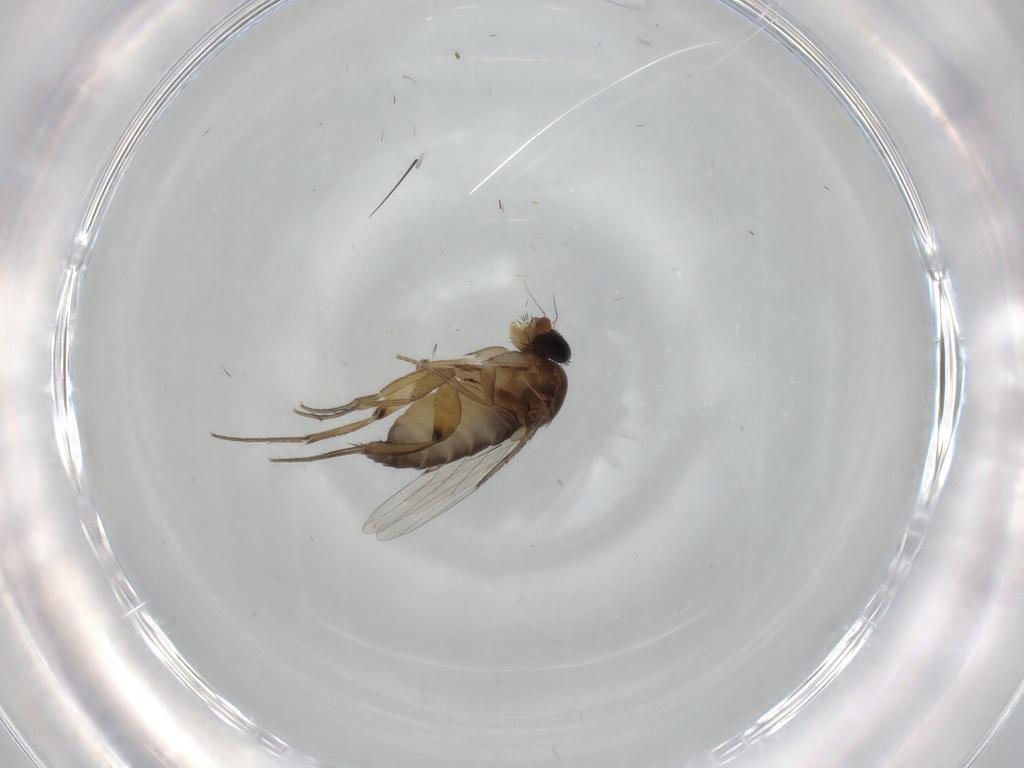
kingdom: Animalia
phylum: Arthropoda
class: Insecta
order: Diptera
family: Phoridae
